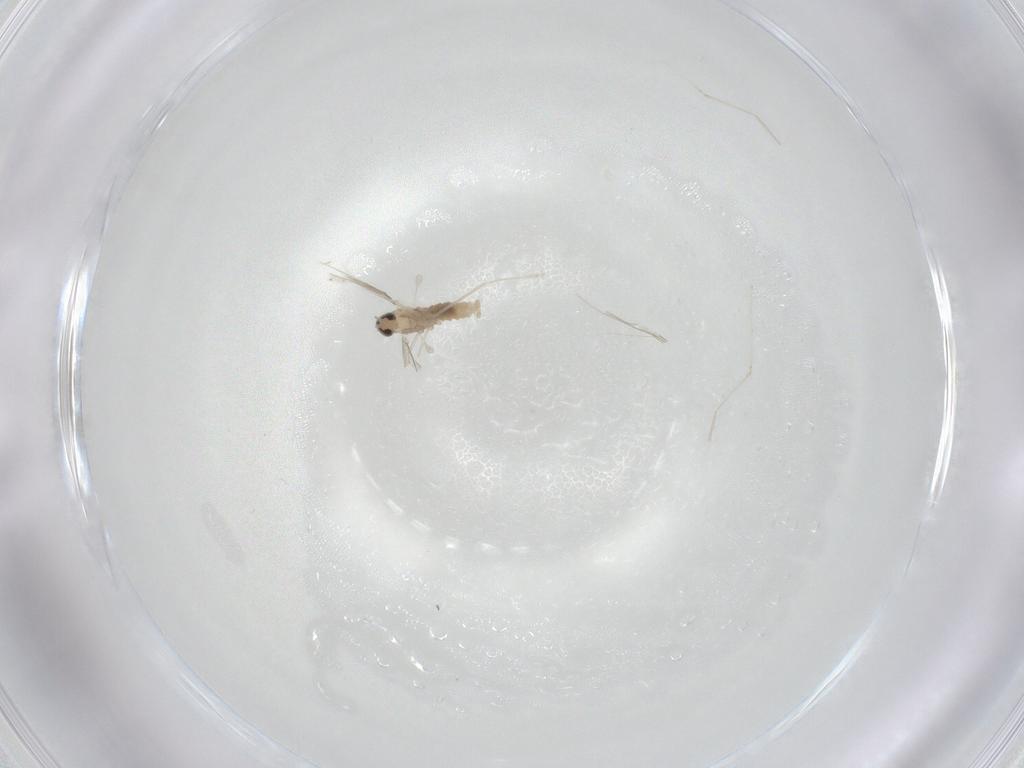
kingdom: Animalia
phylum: Arthropoda
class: Insecta
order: Diptera
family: Cecidomyiidae
